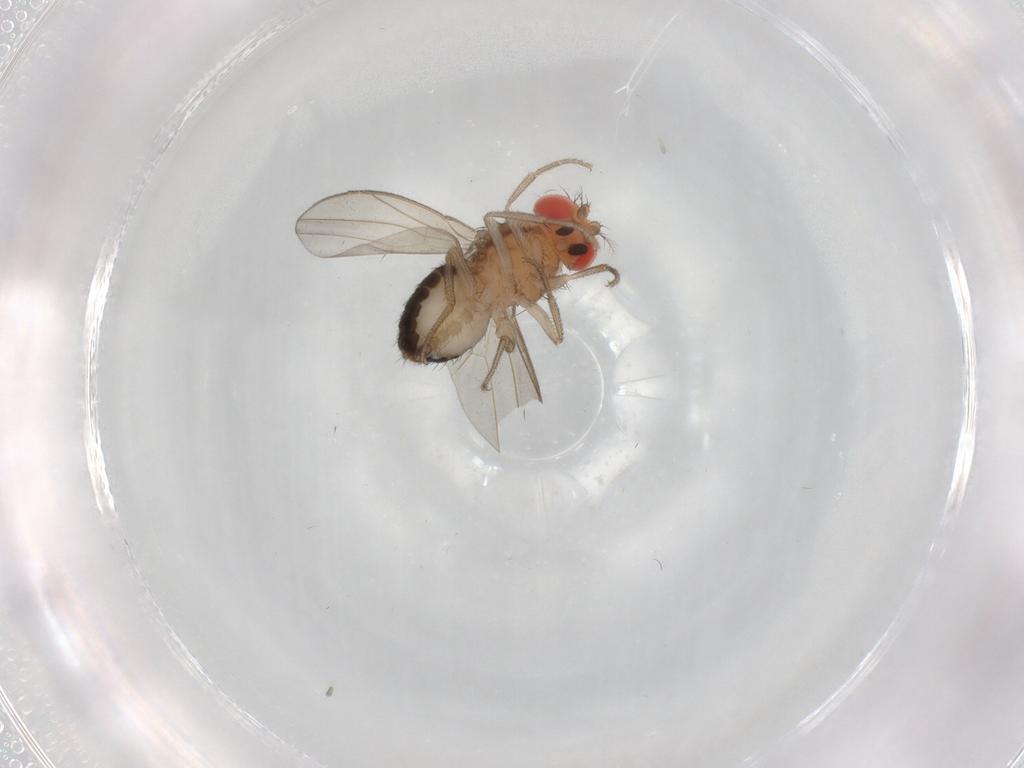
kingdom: Animalia
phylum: Arthropoda
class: Insecta
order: Diptera
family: Drosophilidae
